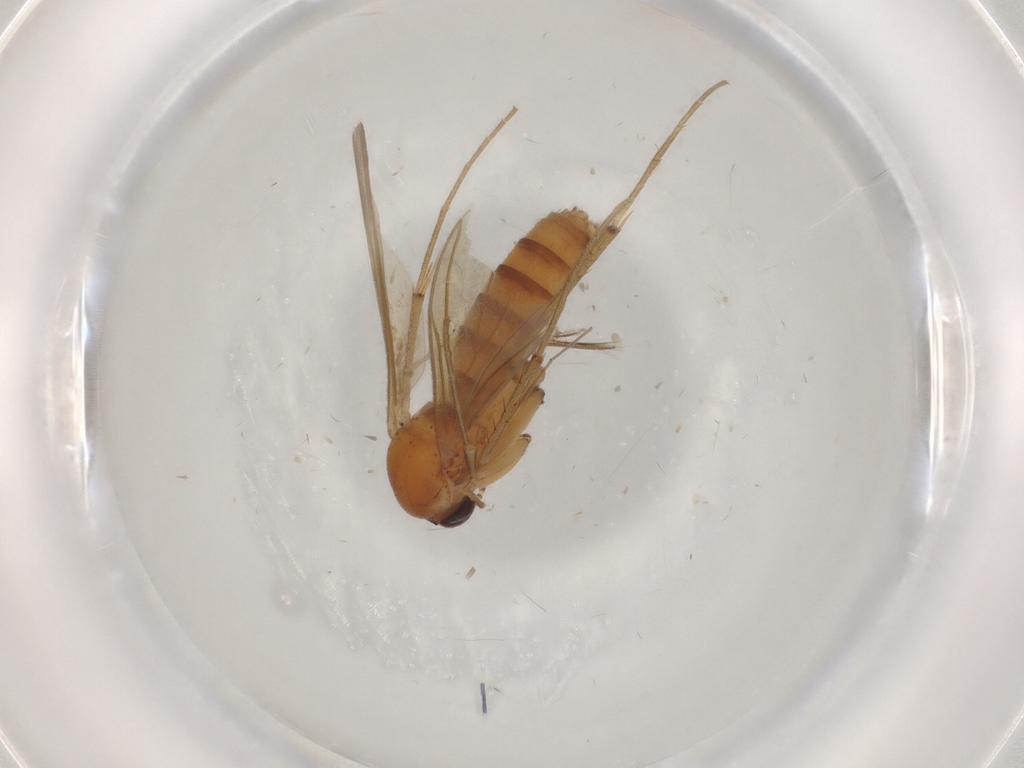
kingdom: Animalia
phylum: Arthropoda
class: Insecta
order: Diptera
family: Mycetophilidae
